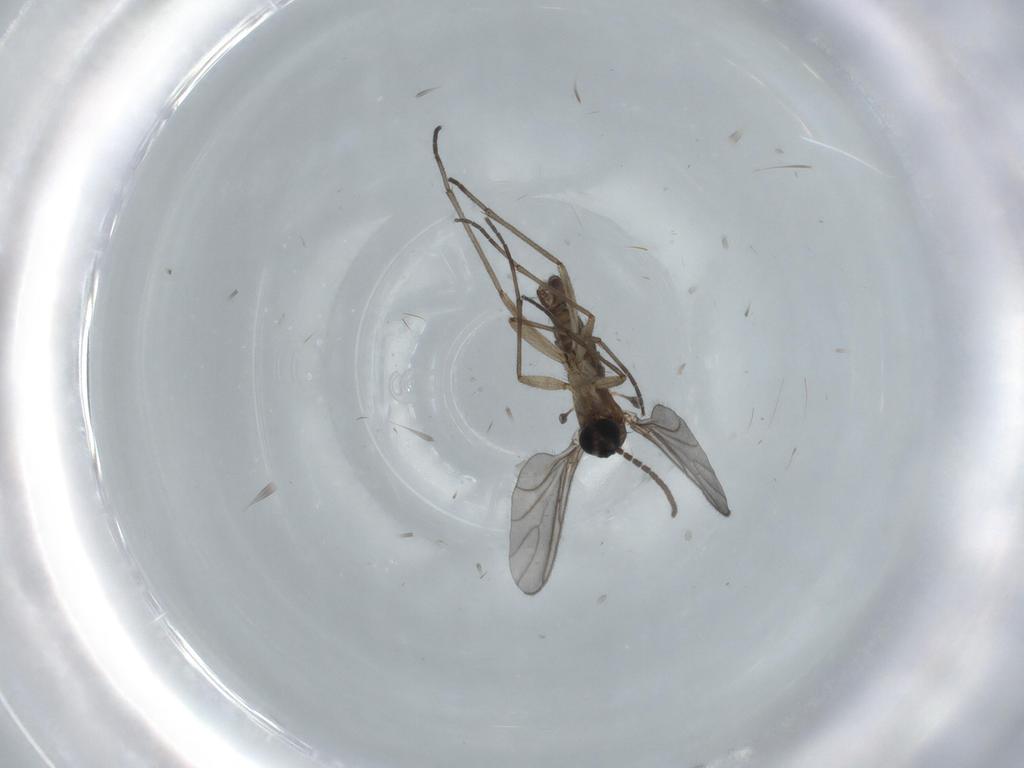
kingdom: Animalia
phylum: Arthropoda
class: Insecta
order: Diptera
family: Sciaridae
